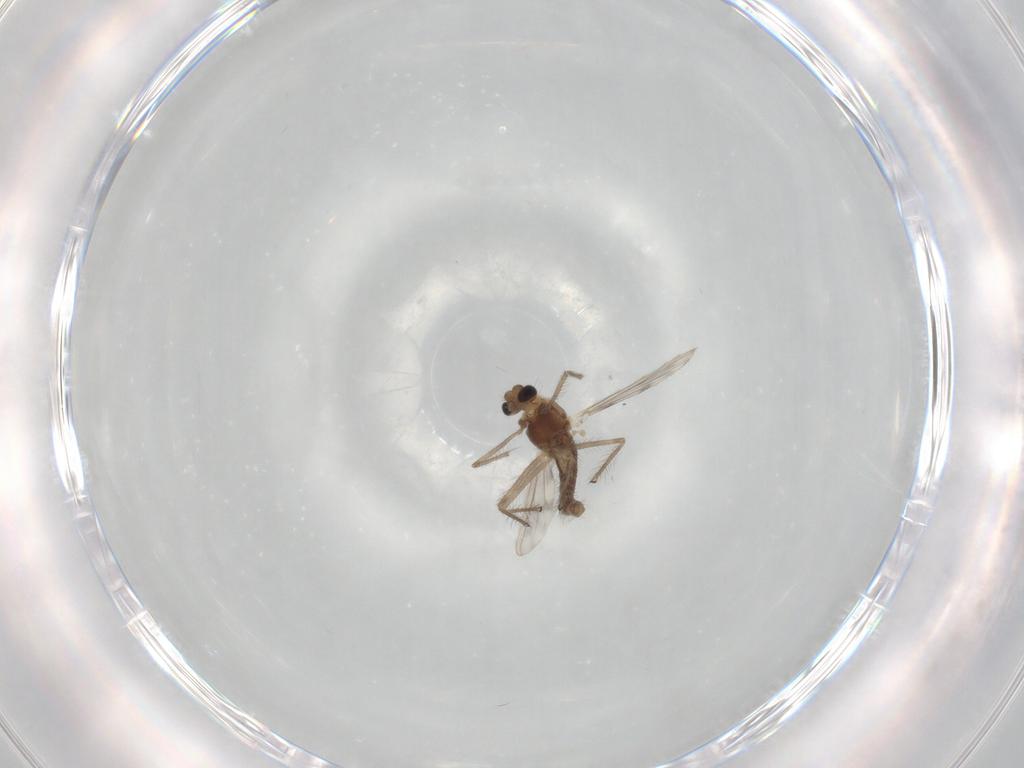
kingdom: Animalia
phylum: Arthropoda
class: Insecta
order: Diptera
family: Chironomidae
